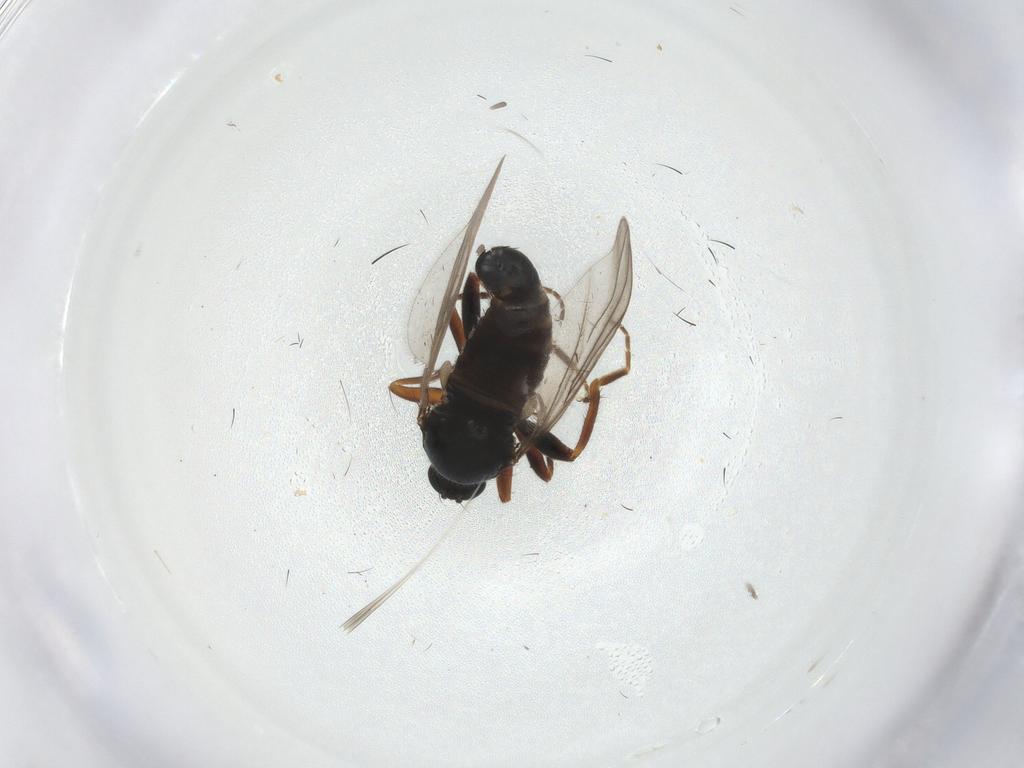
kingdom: Animalia
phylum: Arthropoda
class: Insecta
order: Diptera
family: Hybotidae
